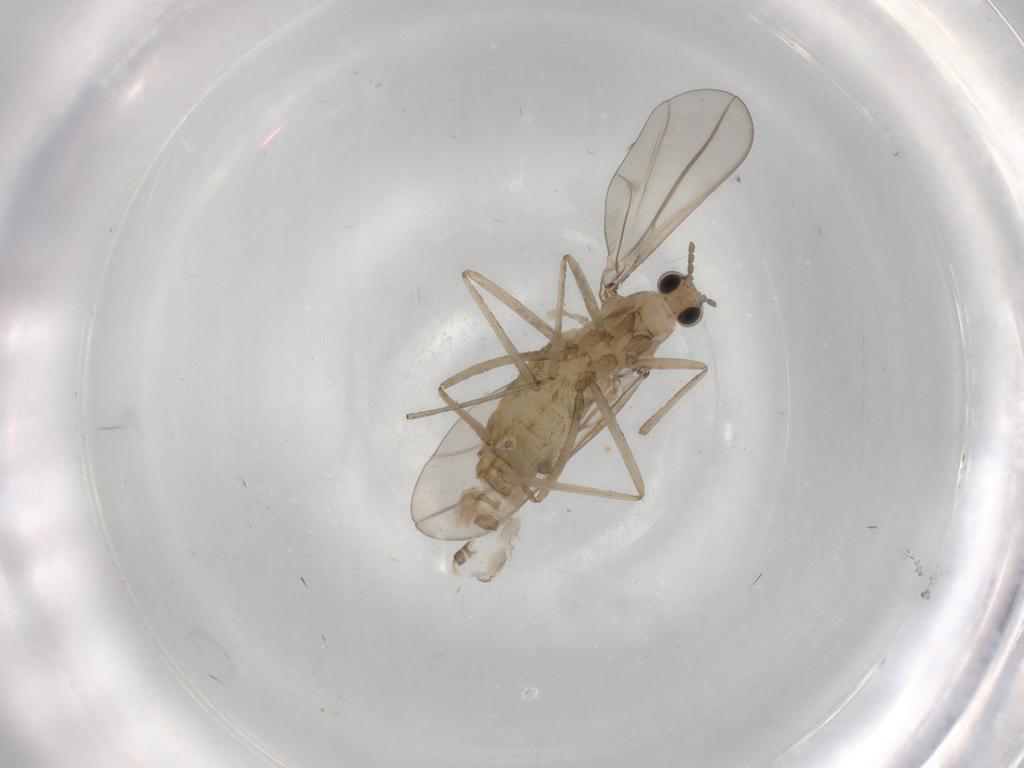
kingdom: Animalia
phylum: Arthropoda
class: Insecta
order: Diptera
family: Cecidomyiidae
